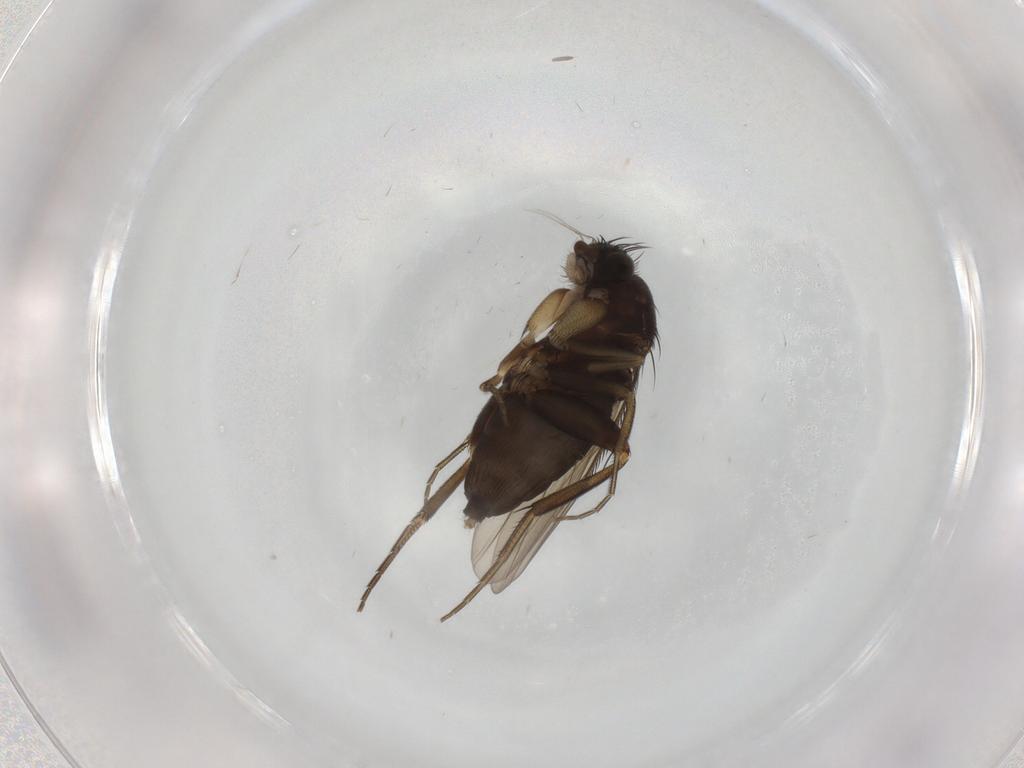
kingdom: Animalia
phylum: Arthropoda
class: Insecta
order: Diptera
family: Phoridae
